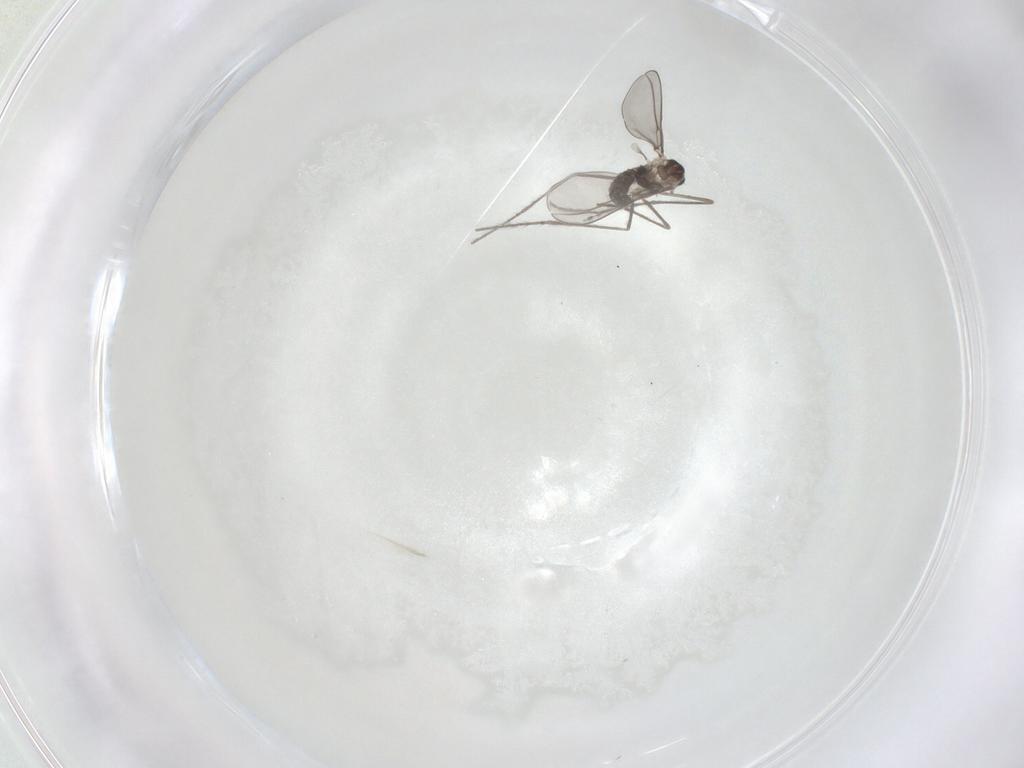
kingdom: Animalia
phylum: Arthropoda
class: Insecta
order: Diptera
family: Cecidomyiidae
